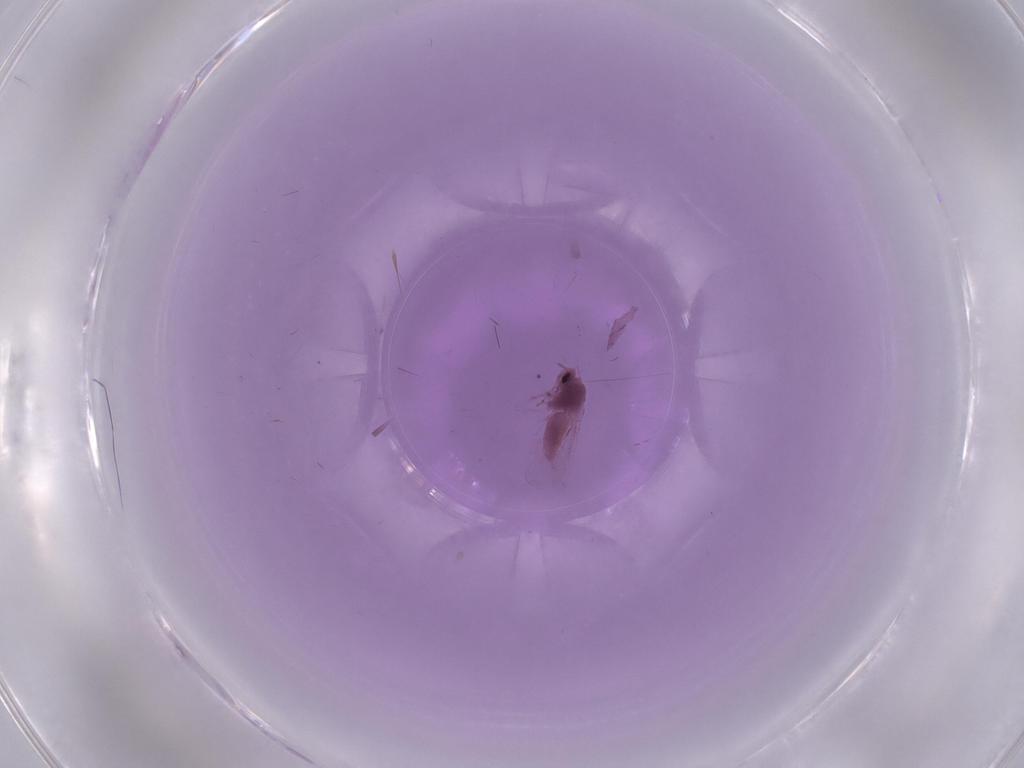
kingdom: Animalia
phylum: Arthropoda
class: Insecta
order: Hemiptera
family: Aleyrodidae
